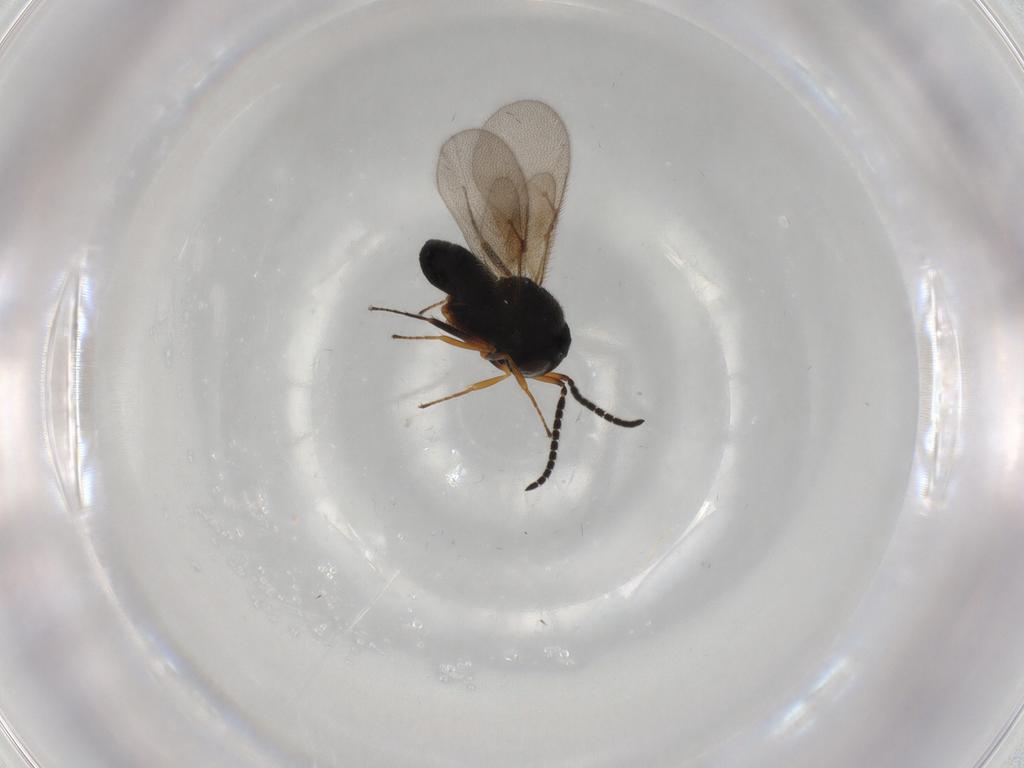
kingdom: Animalia
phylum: Arthropoda
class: Insecta
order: Hymenoptera
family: Scelionidae
